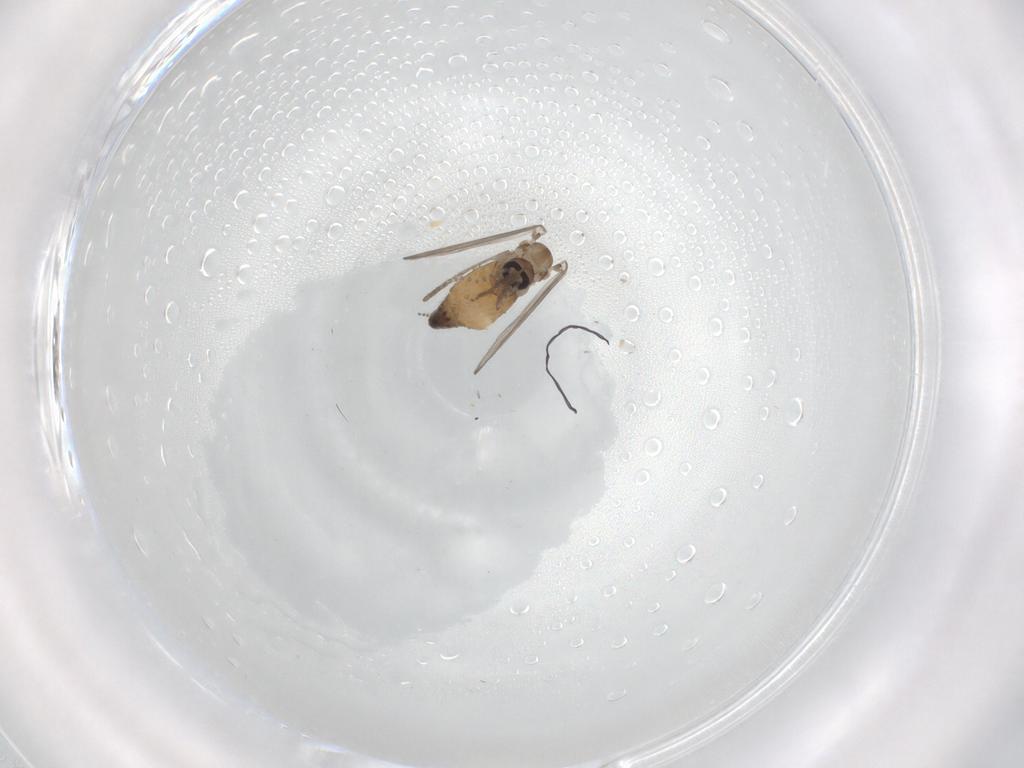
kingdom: Animalia
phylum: Arthropoda
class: Insecta
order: Diptera
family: Psychodidae
